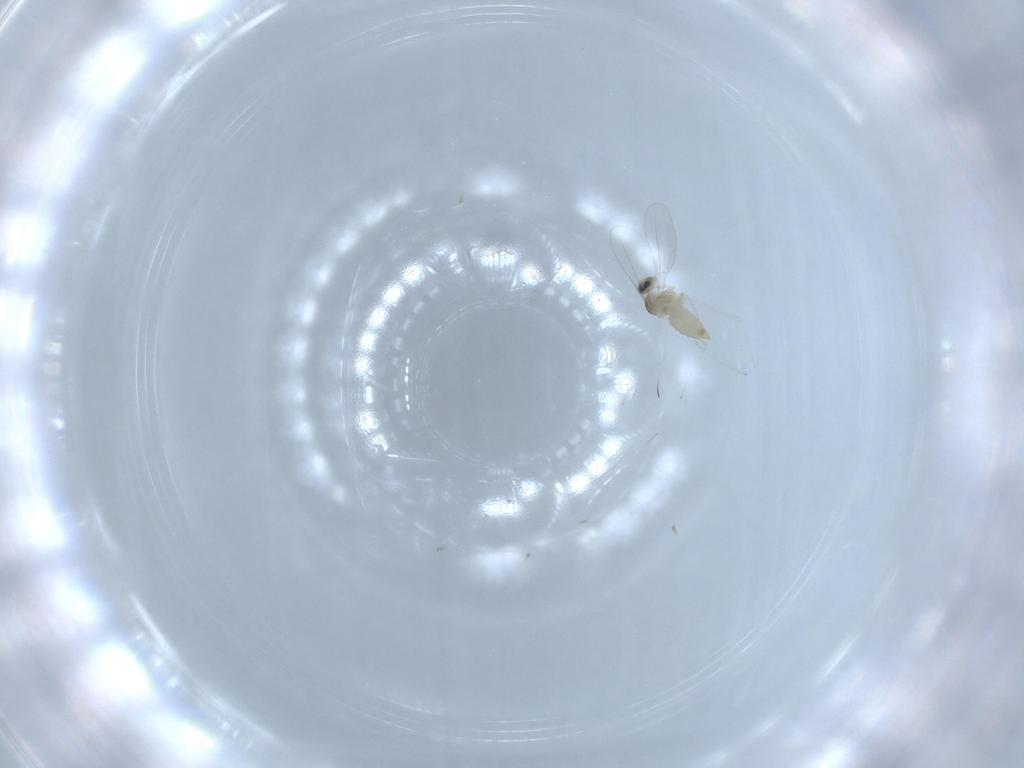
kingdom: Animalia
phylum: Arthropoda
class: Insecta
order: Diptera
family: Cecidomyiidae
